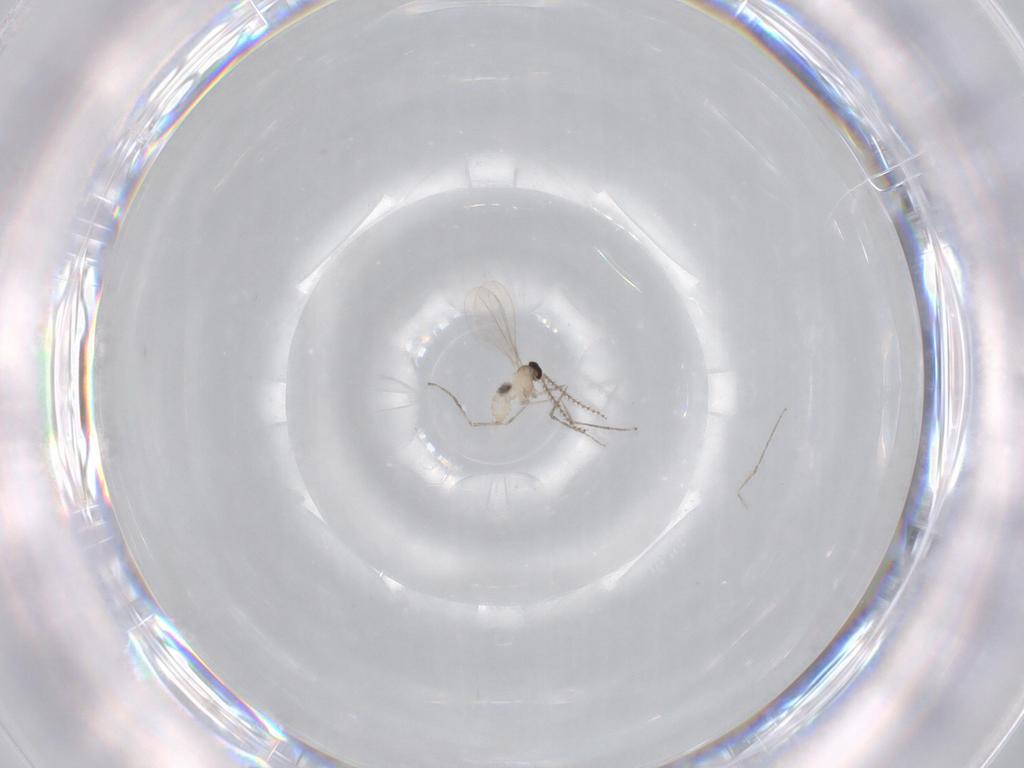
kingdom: Animalia
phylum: Arthropoda
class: Insecta
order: Diptera
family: Cecidomyiidae
